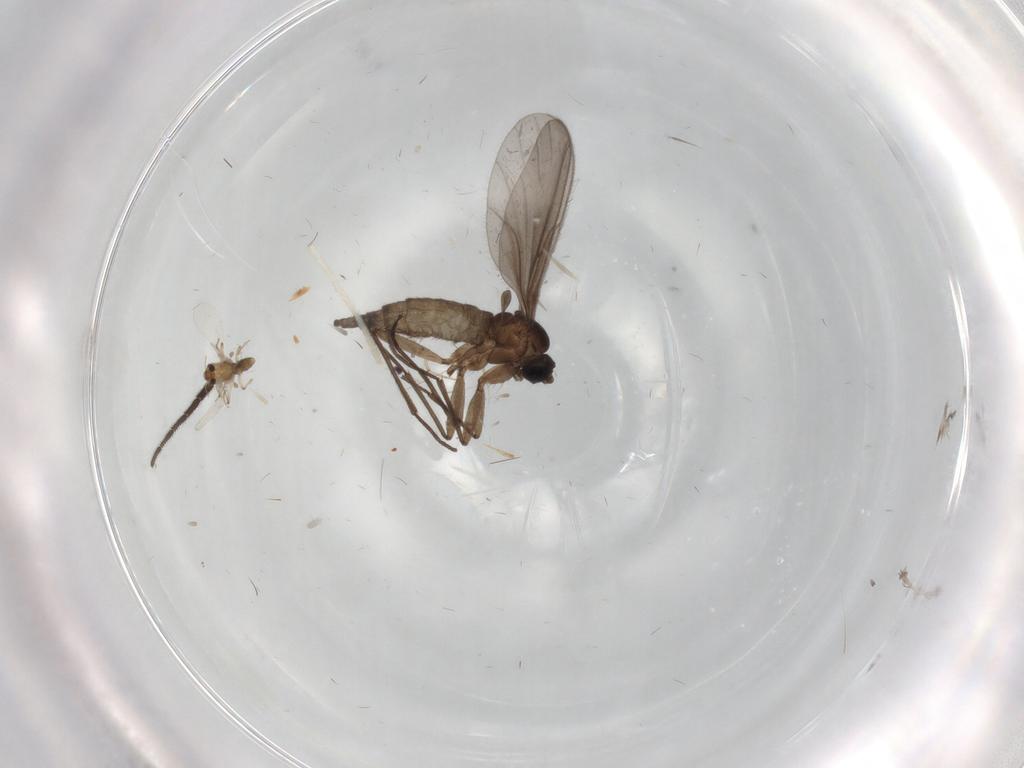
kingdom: Animalia
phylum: Arthropoda
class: Insecta
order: Diptera
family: Sciaridae
